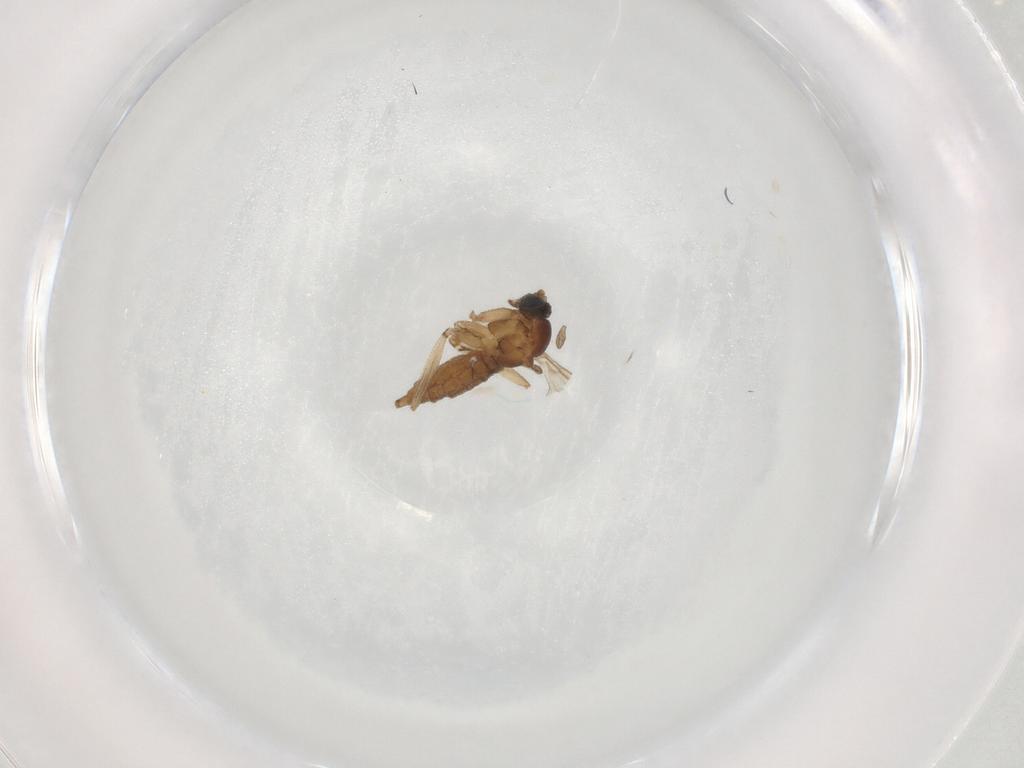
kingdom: Animalia
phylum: Arthropoda
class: Insecta
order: Diptera
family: Sciaridae
